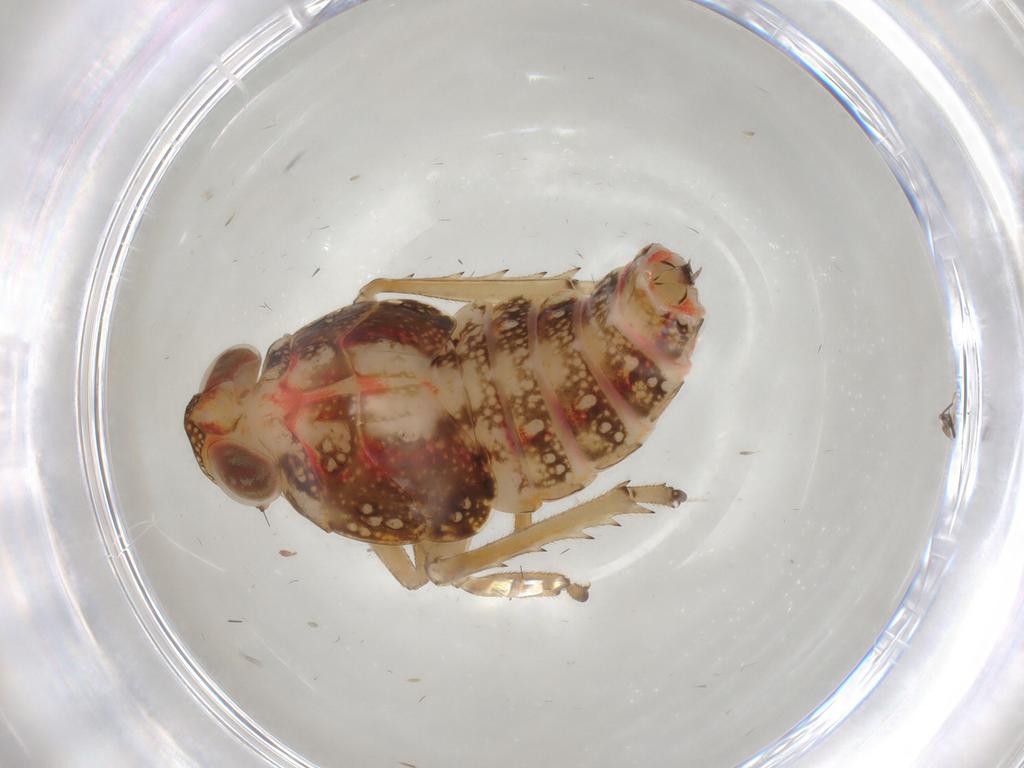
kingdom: Animalia
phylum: Arthropoda
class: Insecta
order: Hemiptera
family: Issidae
